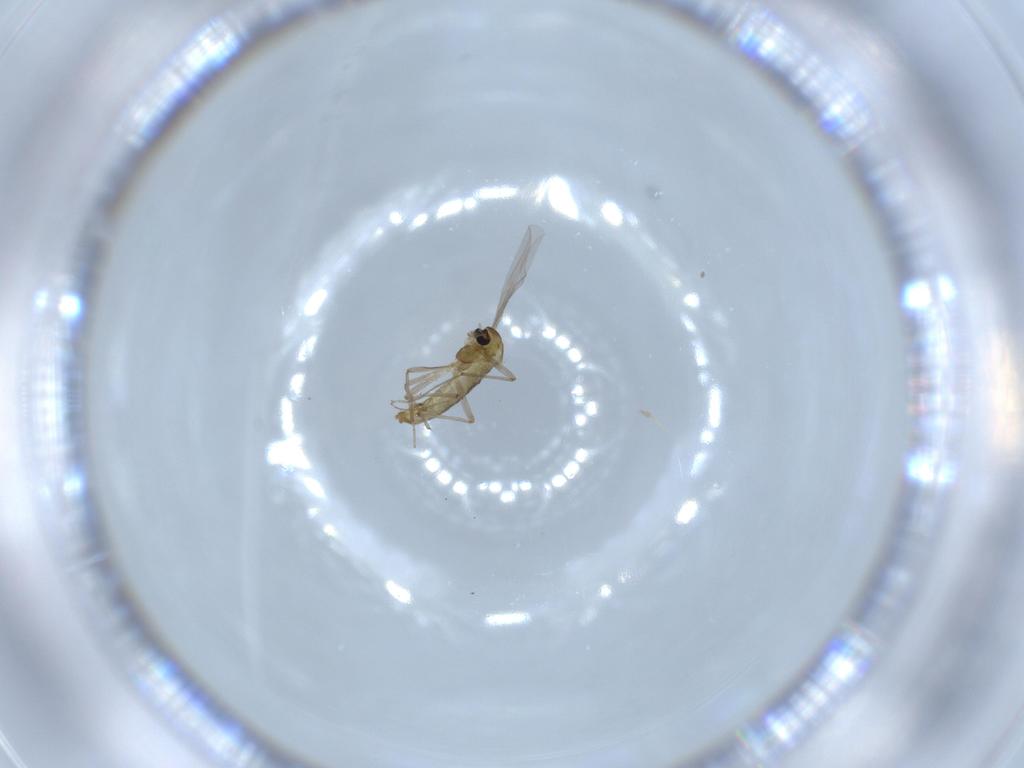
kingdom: Animalia
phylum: Arthropoda
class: Insecta
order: Diptera
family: Chironomidae
